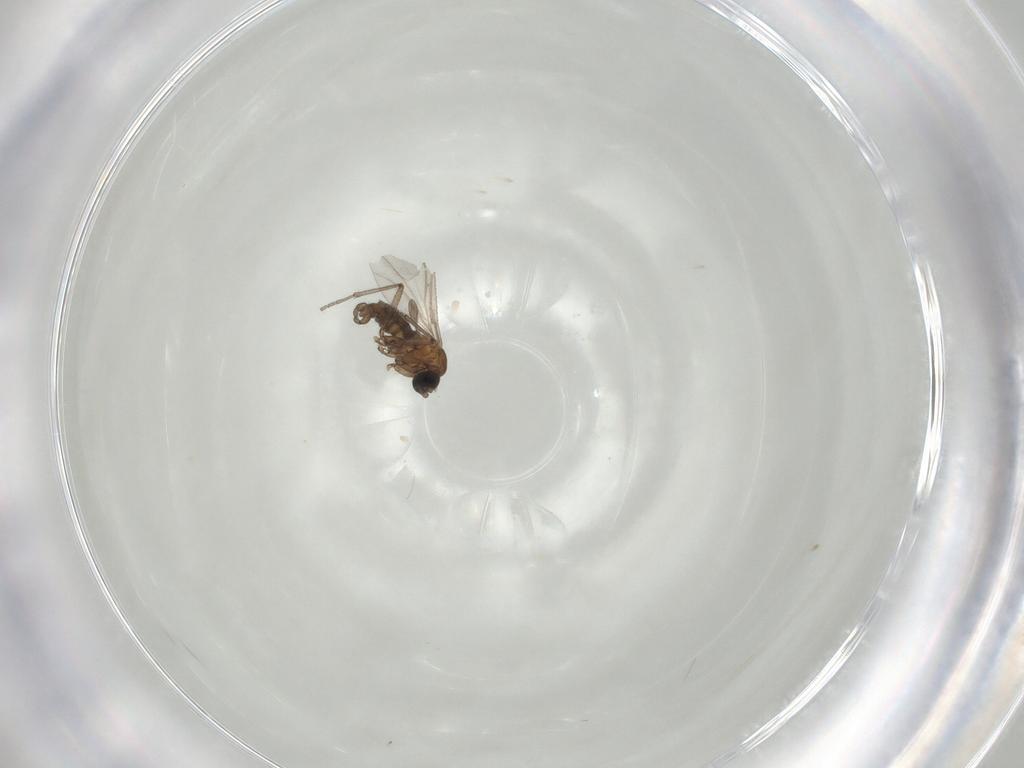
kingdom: Animalia
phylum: Arthropoda
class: Insecta
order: Diptera
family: Sciaridae
